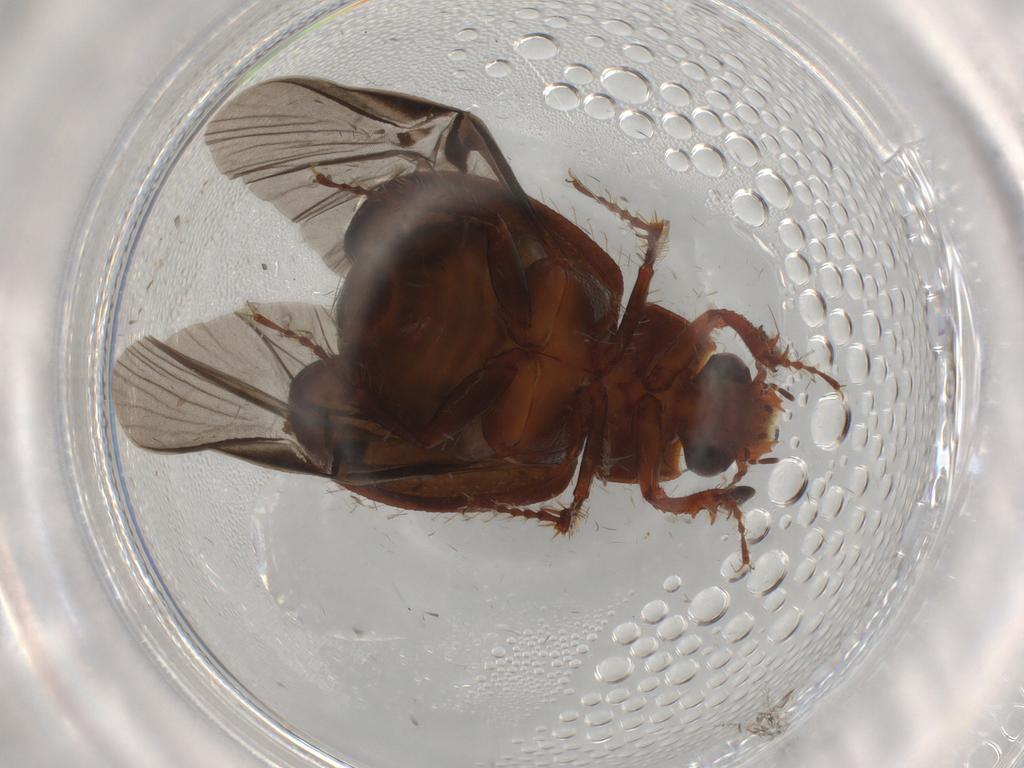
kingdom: Animalia
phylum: Arthropoda
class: Insecta
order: Coleoptera
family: Hybosoridae
